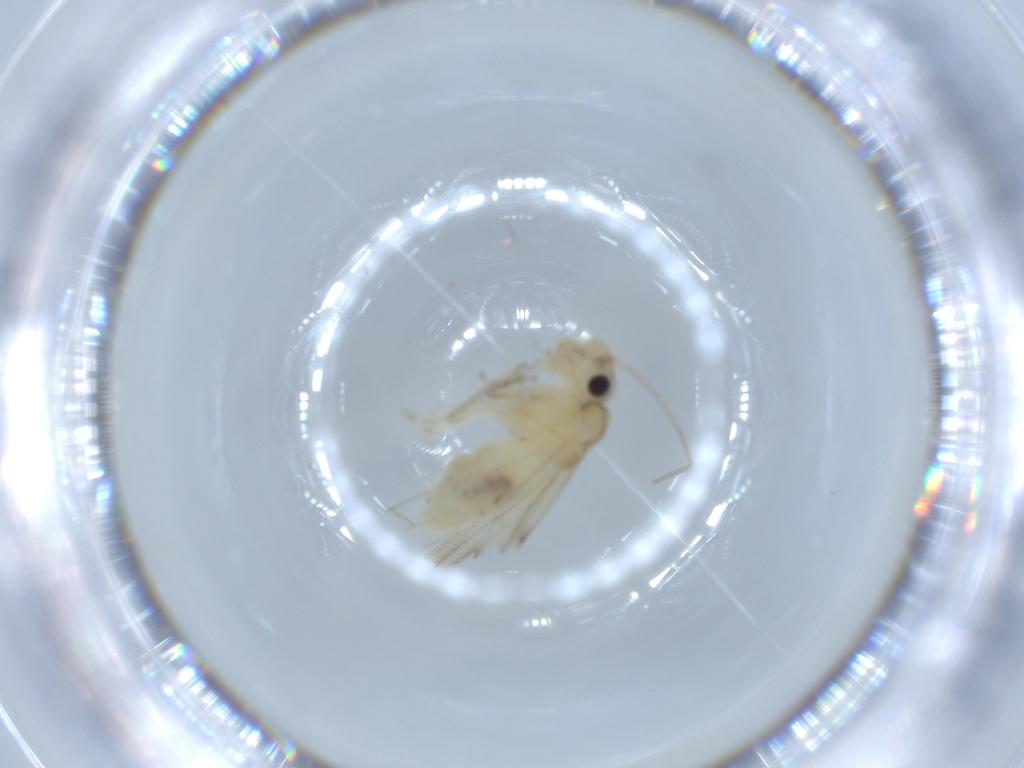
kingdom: Animalia
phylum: Arthropoda
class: Insecta
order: Psocodea
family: Caeciliusidae
